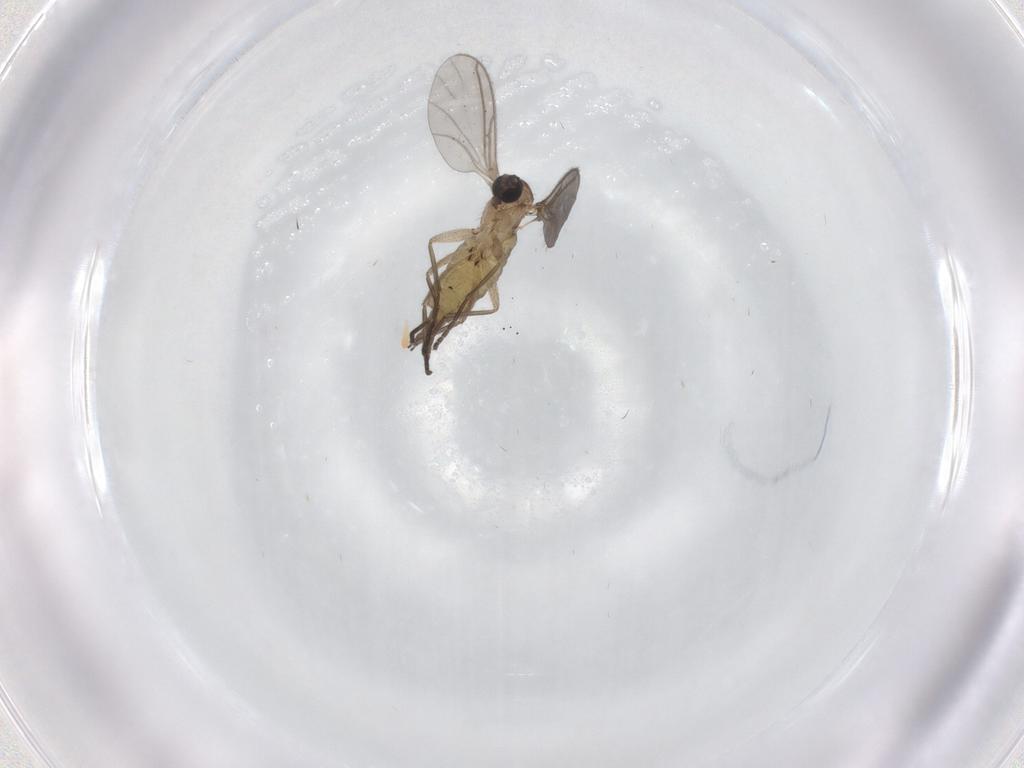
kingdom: Animalia
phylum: Arthropoda
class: Insecta
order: Diptera
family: Sciaridae
